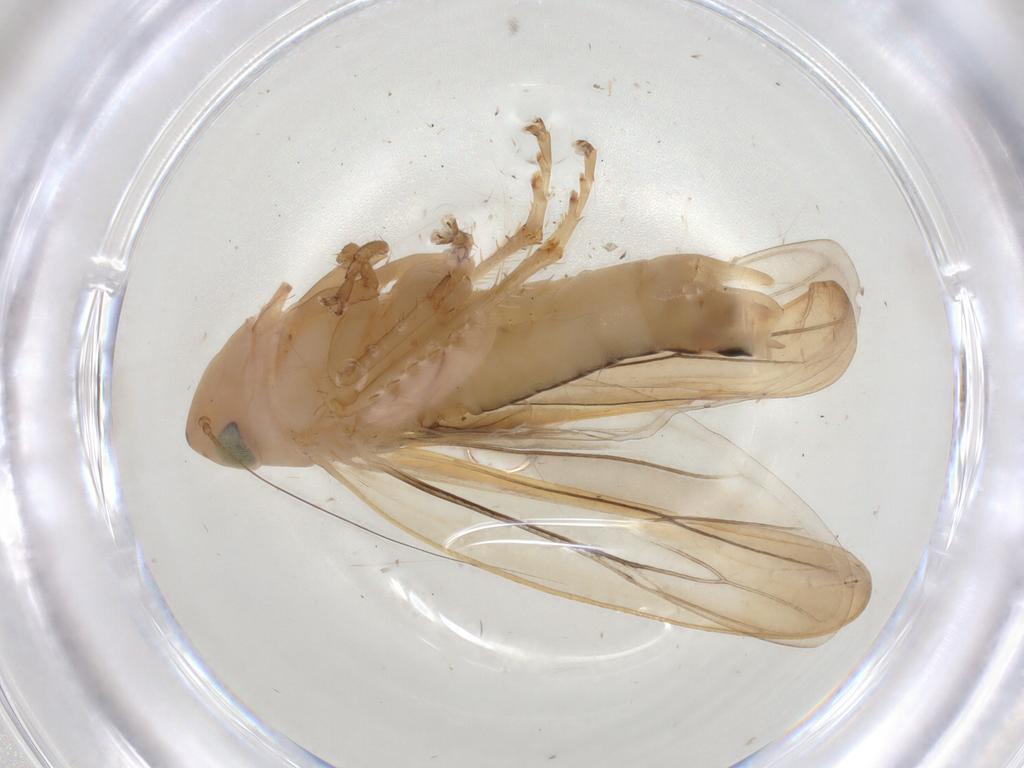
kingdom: Animalia
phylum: Arthropoda
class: Insecta
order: Hemiptera
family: Cicadellidae
